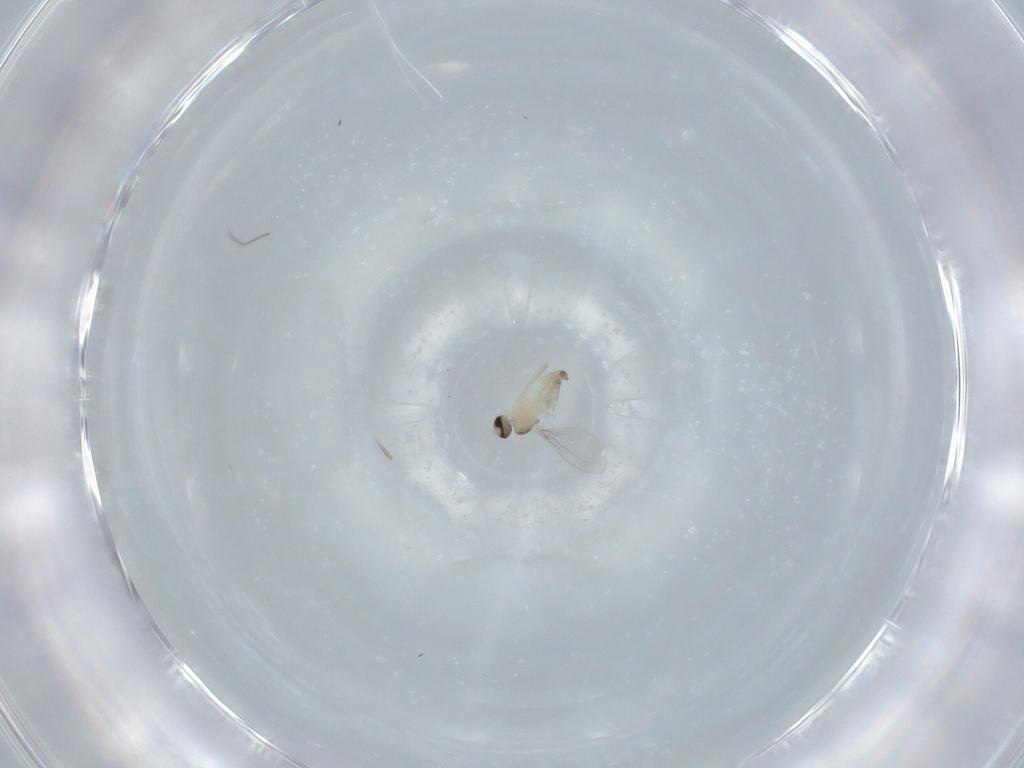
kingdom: Animalia
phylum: Arthropoda
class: Insecta
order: Diptera
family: Cecidomyiidae
